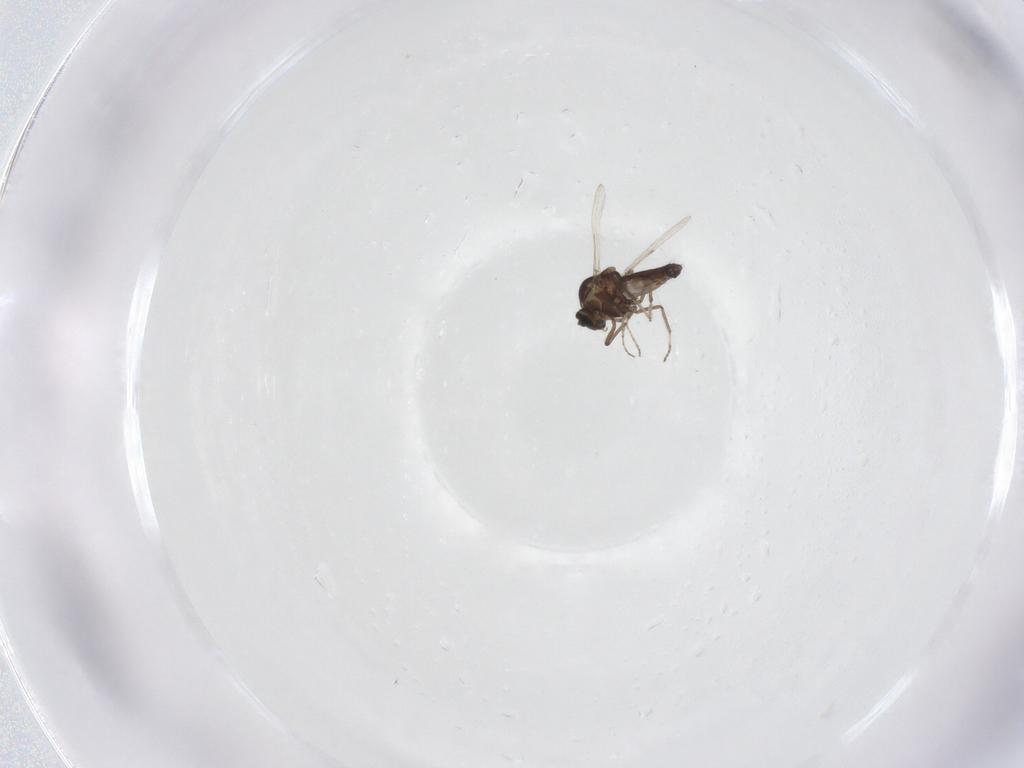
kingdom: Animalia
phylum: Arthropoda
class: Insecta
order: Diptera
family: Ceratopogonidae
